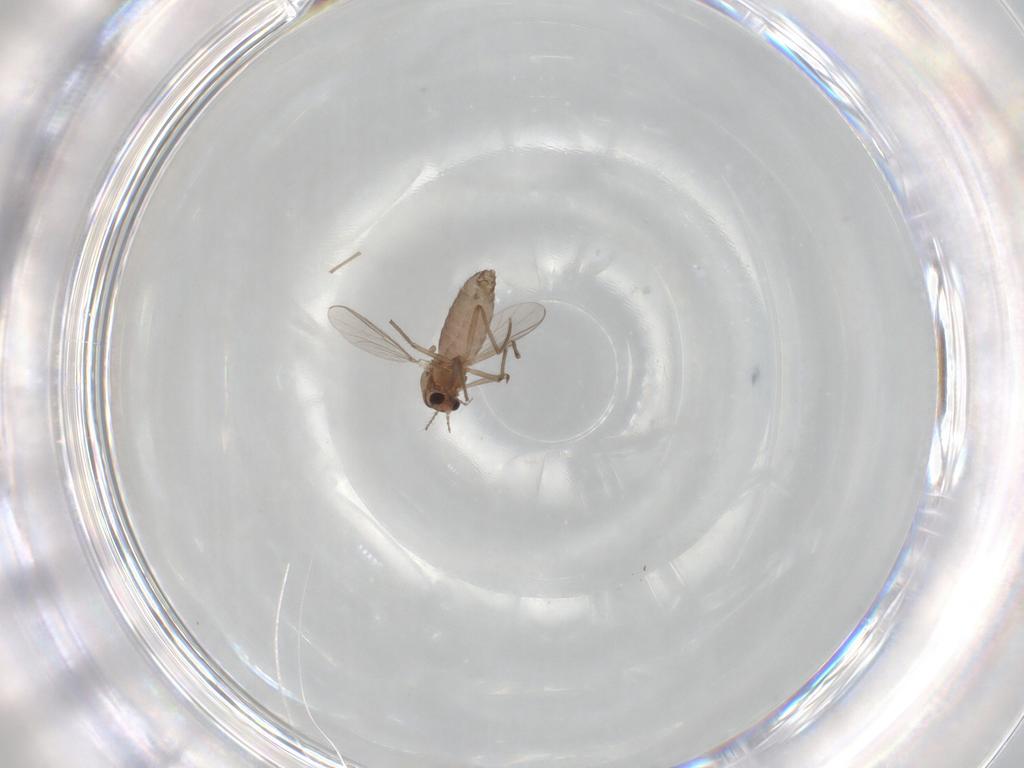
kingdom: Animalia
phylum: Arthropoda
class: Insecta
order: Diptera
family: Chironomidae
